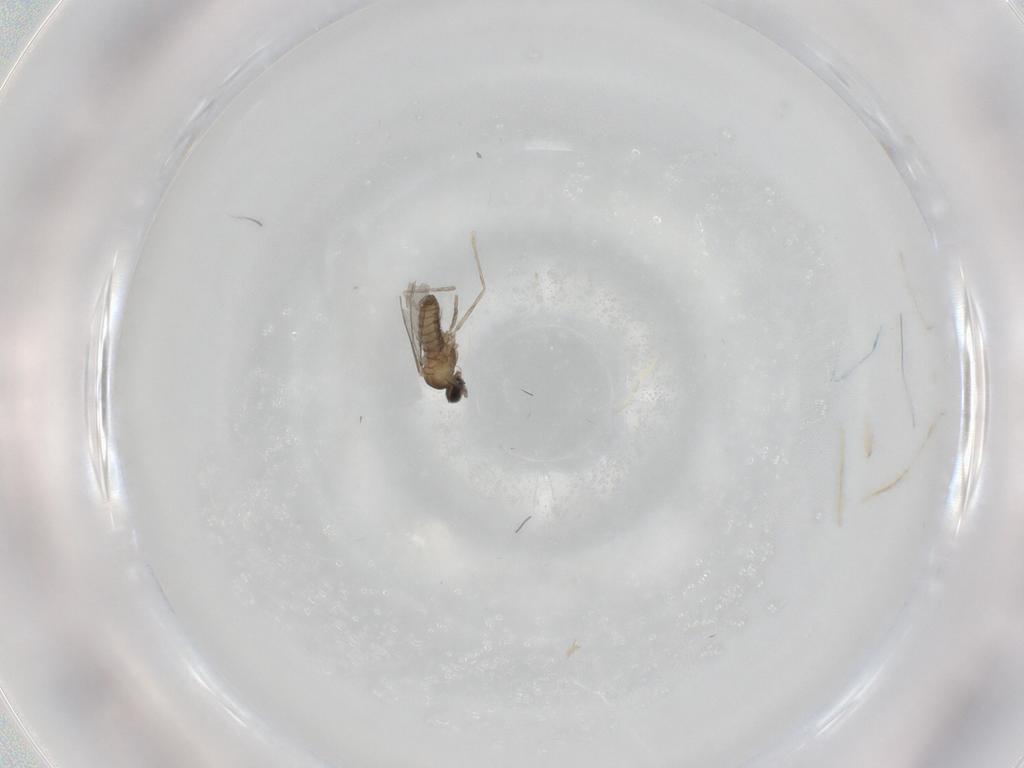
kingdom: Animalia
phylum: Arthropoda
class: Insecta
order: Diptera
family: Cecidomyiidae
